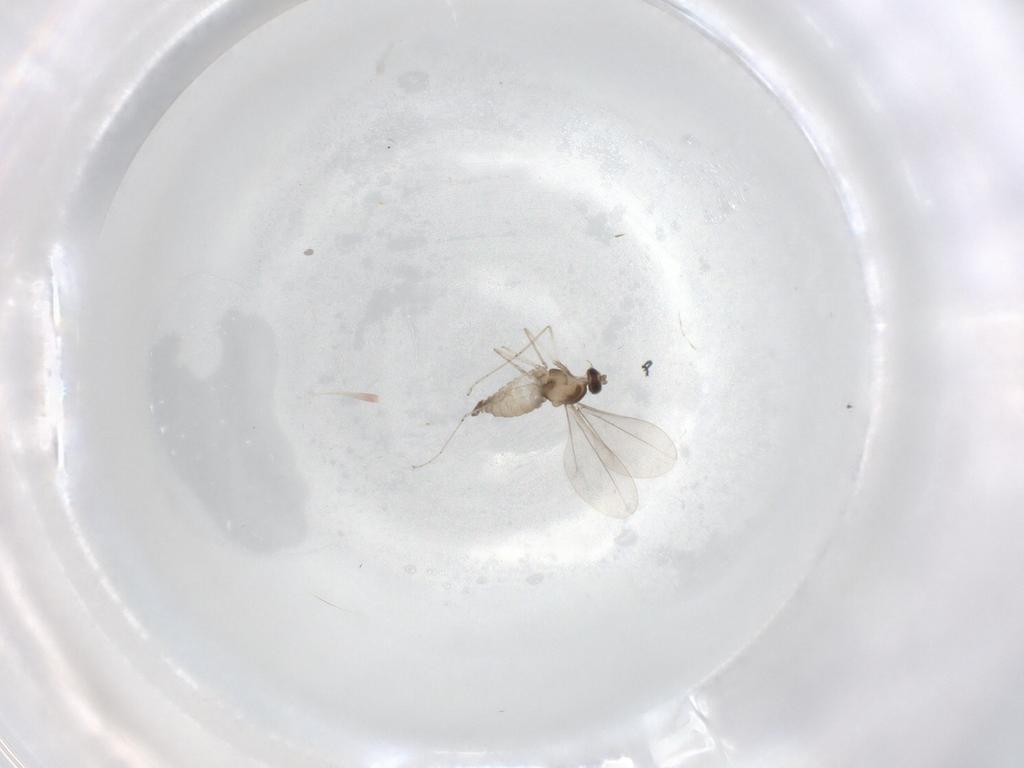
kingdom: Animalia
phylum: Arthropoda
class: Insecta
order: Diptera
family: Cecidomyiidae
